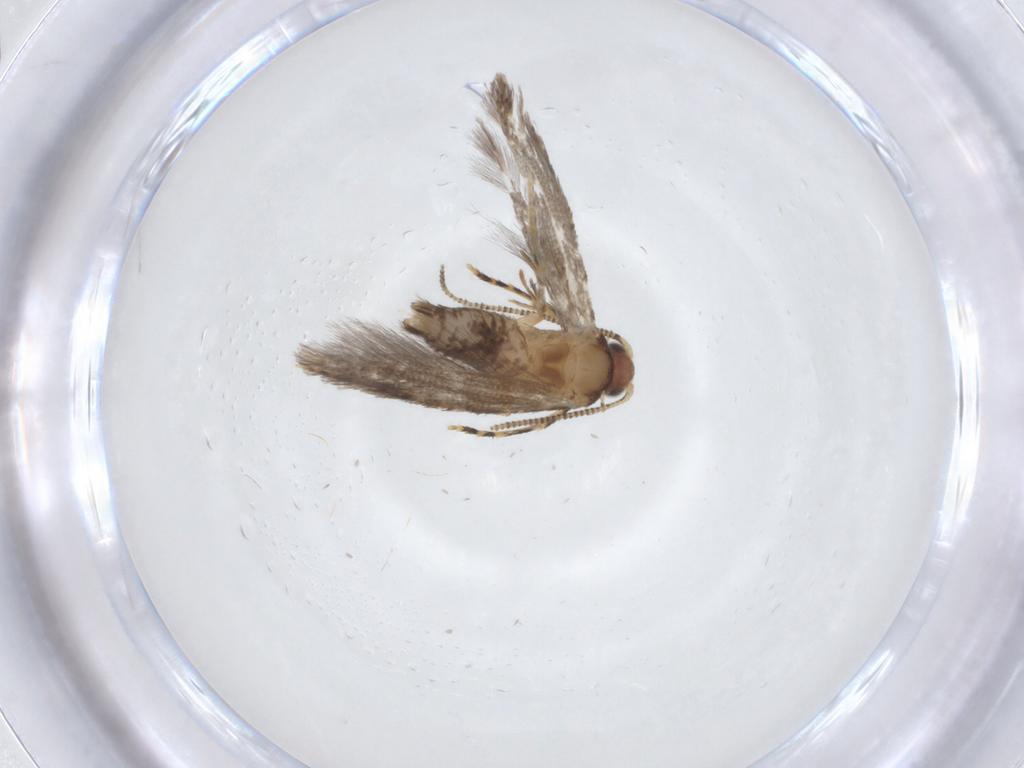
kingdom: Animalia
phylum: Arthropoda
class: Insecta
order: Lepidoptera
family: Meessiidae
